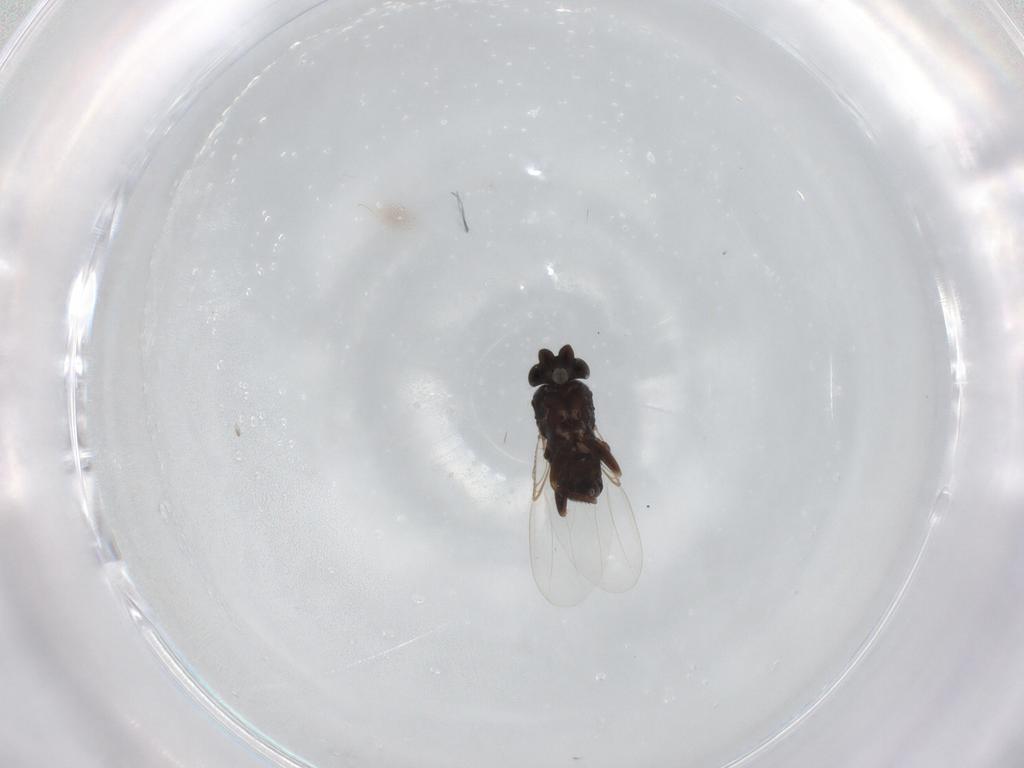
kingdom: Animalia
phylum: Arthropoda
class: Insecta
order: Diptera
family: Phoridae
